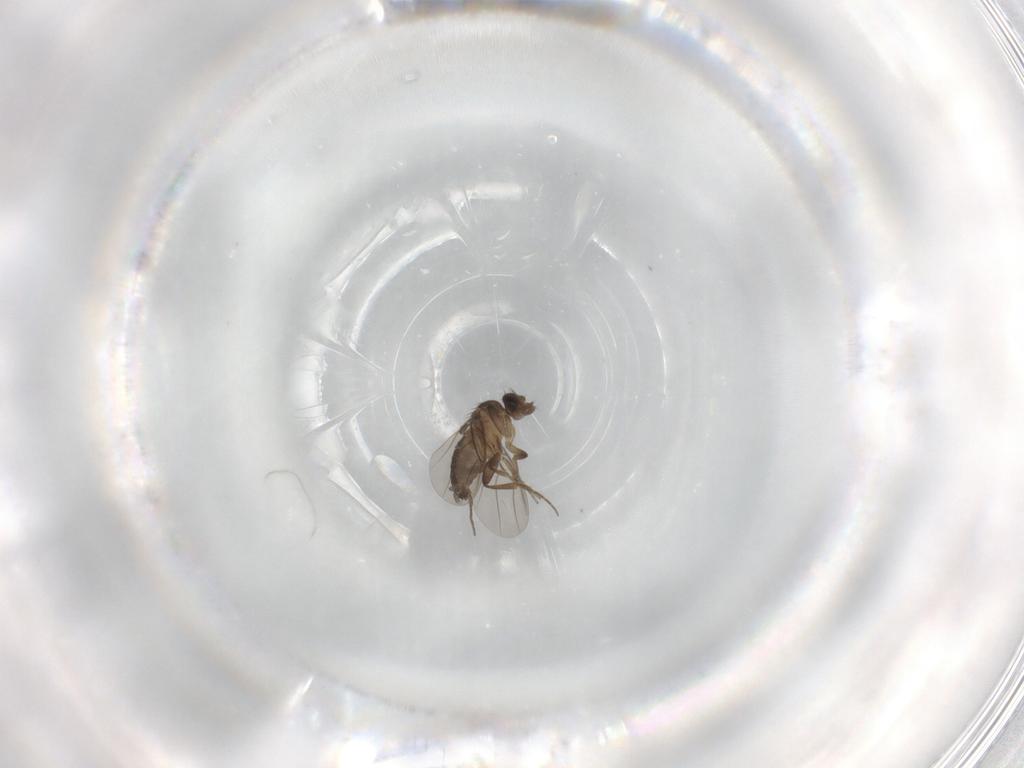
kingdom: Animalia
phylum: Arthropoda
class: Insecta
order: Diptera
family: Phoridae
